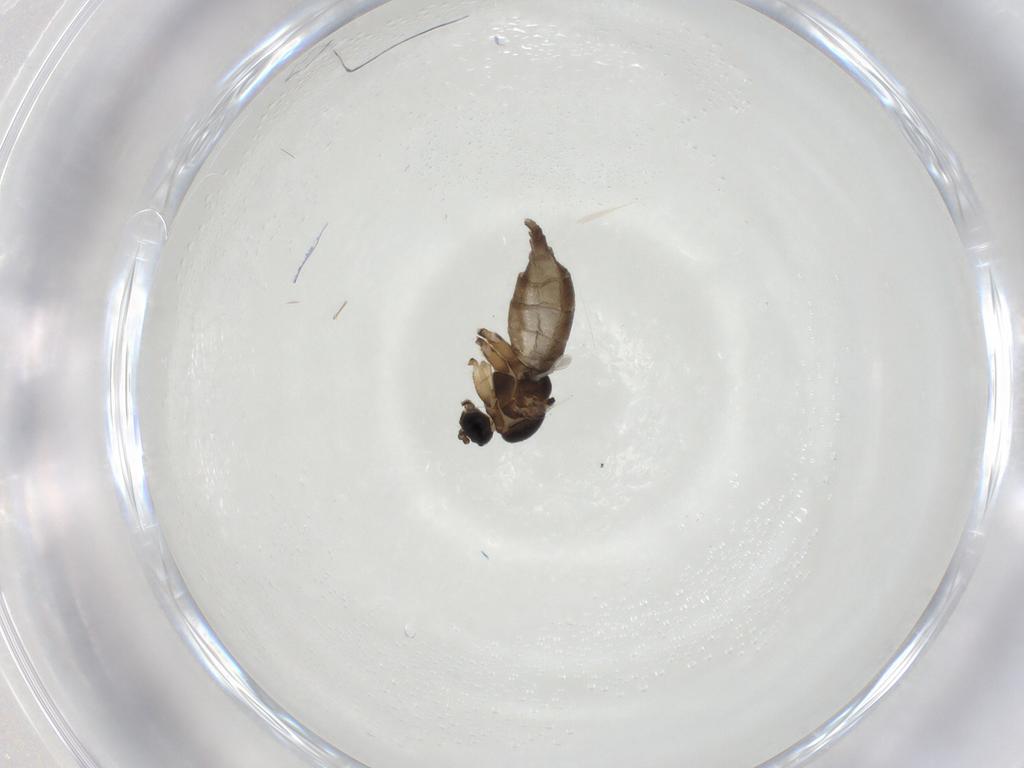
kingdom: Animalia
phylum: Arthropoda
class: Insecta
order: Diptera
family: Cecidomyiidae
